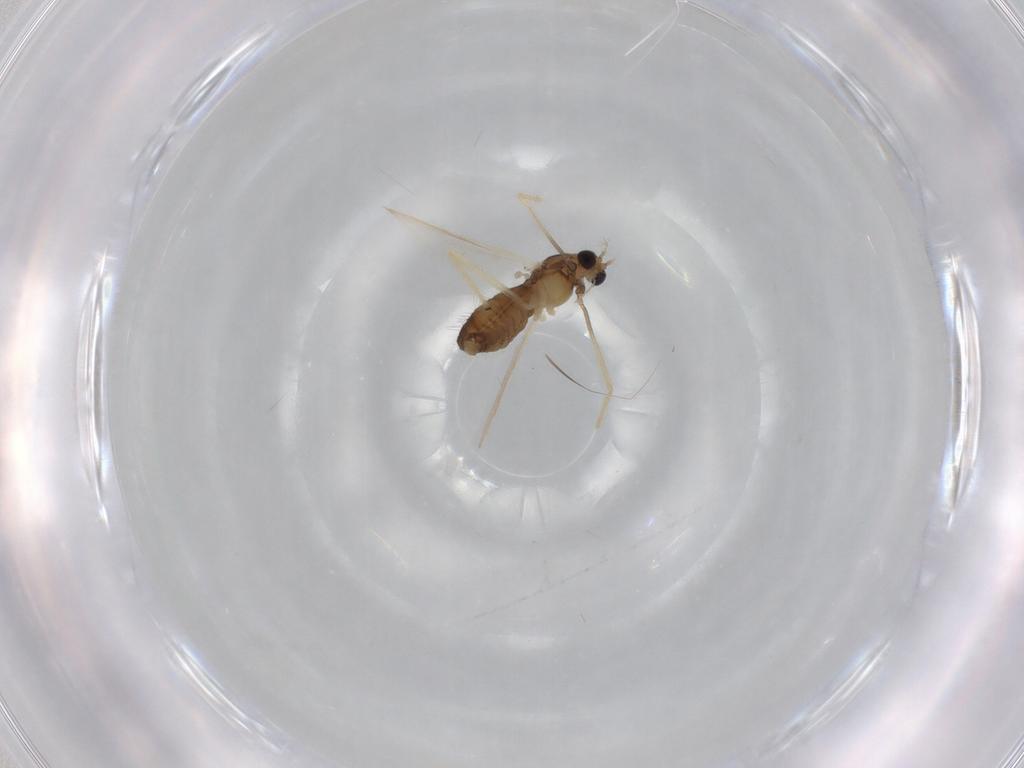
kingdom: Animalia
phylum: Arthropoda
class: Insecta
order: Diptera
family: Chironomidae
